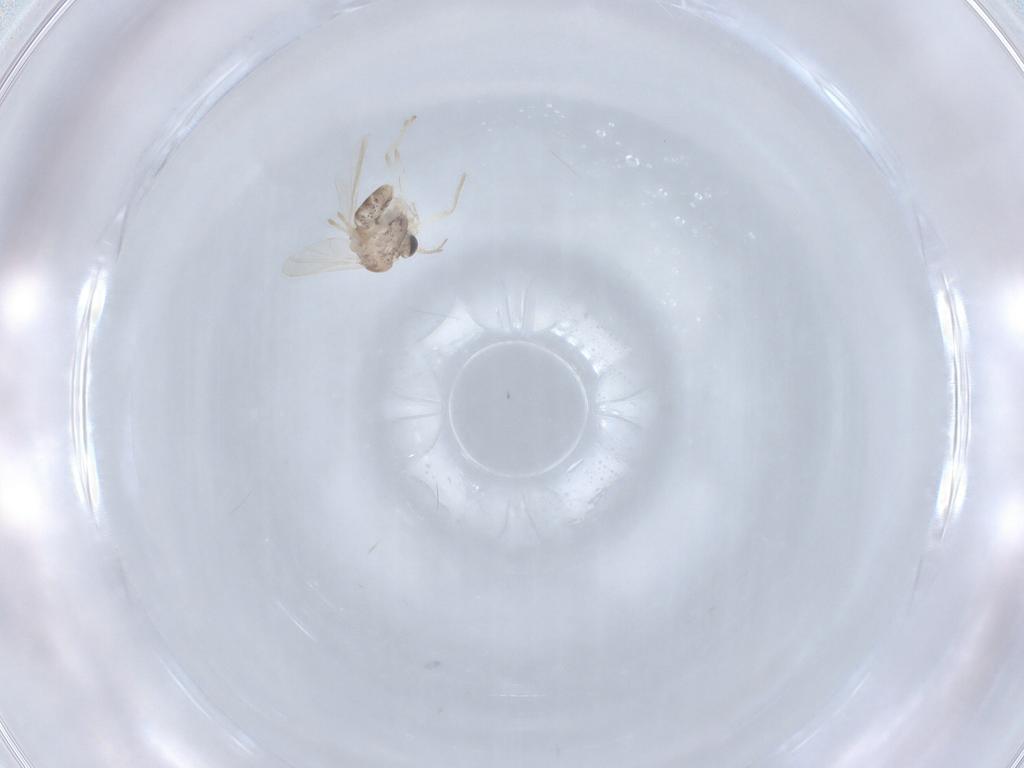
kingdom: Animalia
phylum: Arthropoda
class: Insecta
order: Diptera
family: Chironomidae
